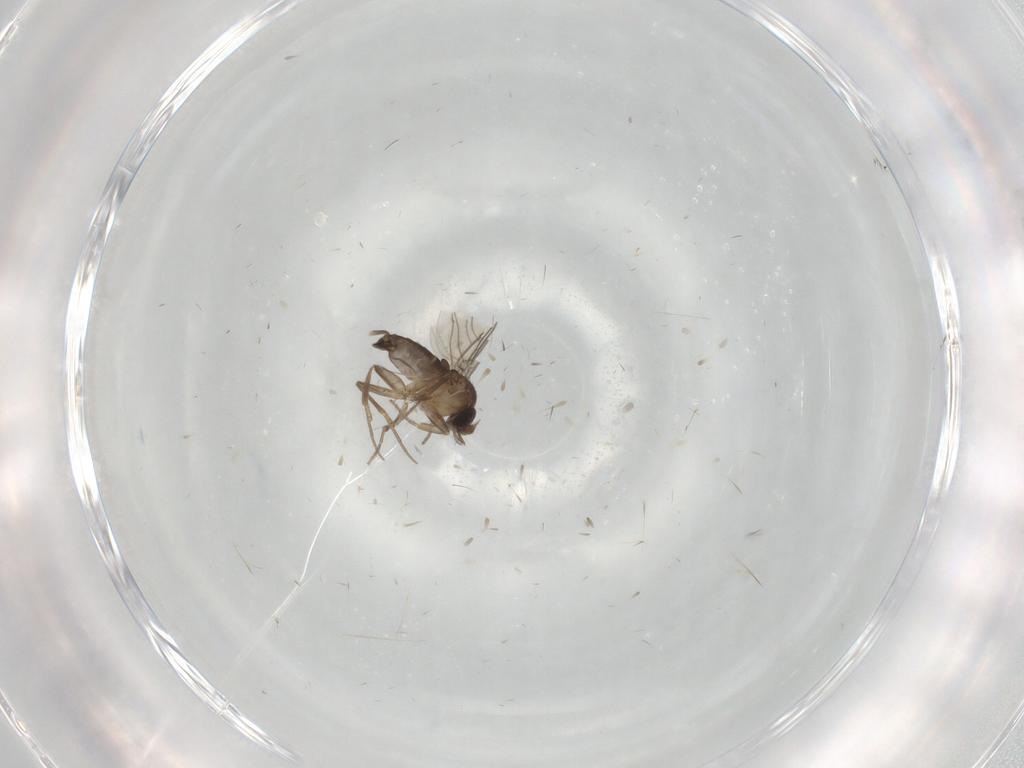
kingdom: Animalia
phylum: Arthropoda
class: Insecta
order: Diptera
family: Phoridae
